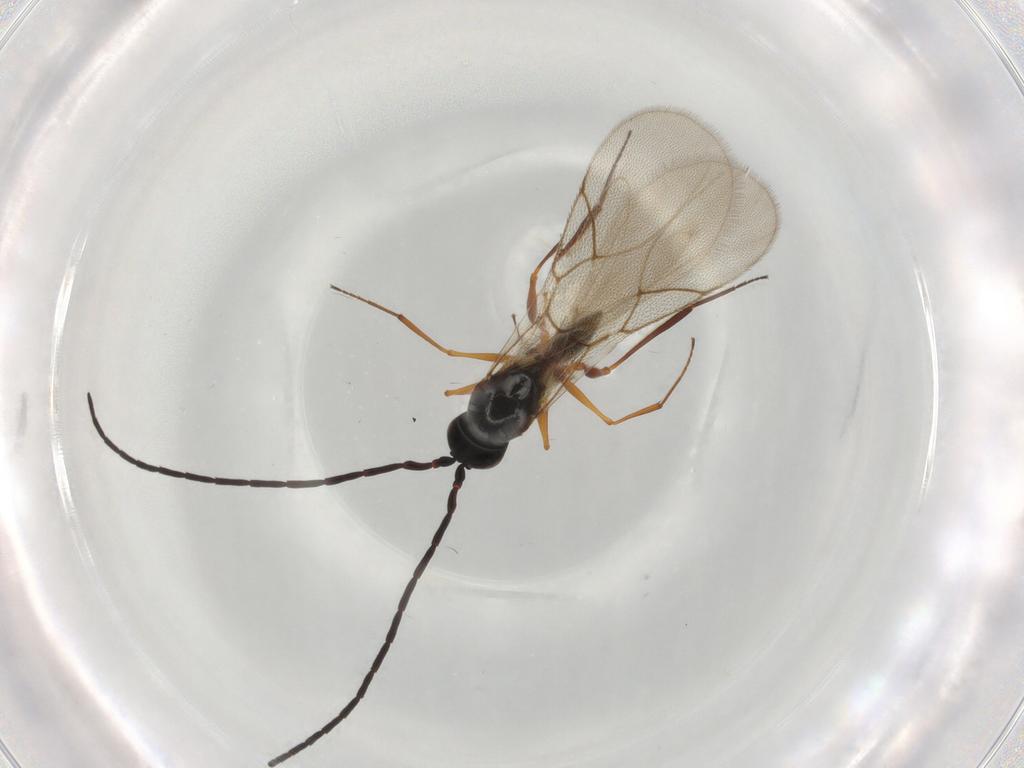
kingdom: Animalia
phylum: Arthropoda
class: Insecta
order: Hymenoptera
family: Figitidae
